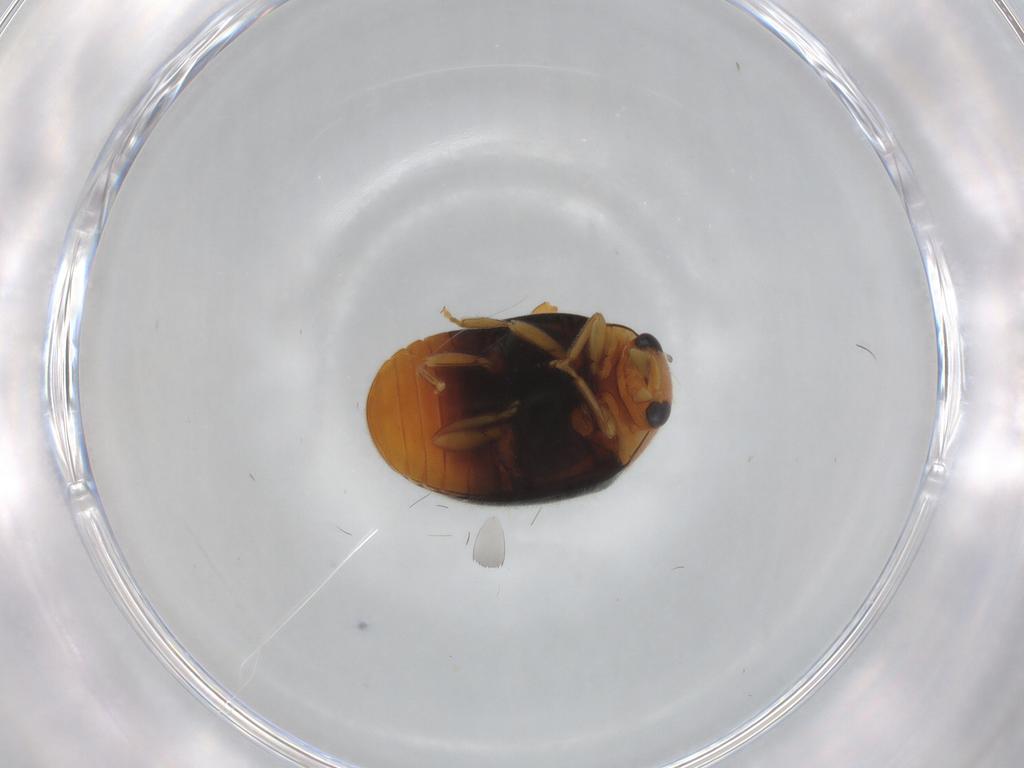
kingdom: Animalia
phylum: Arthropoda
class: Insecta
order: Coleoptera
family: Coccinellidae
